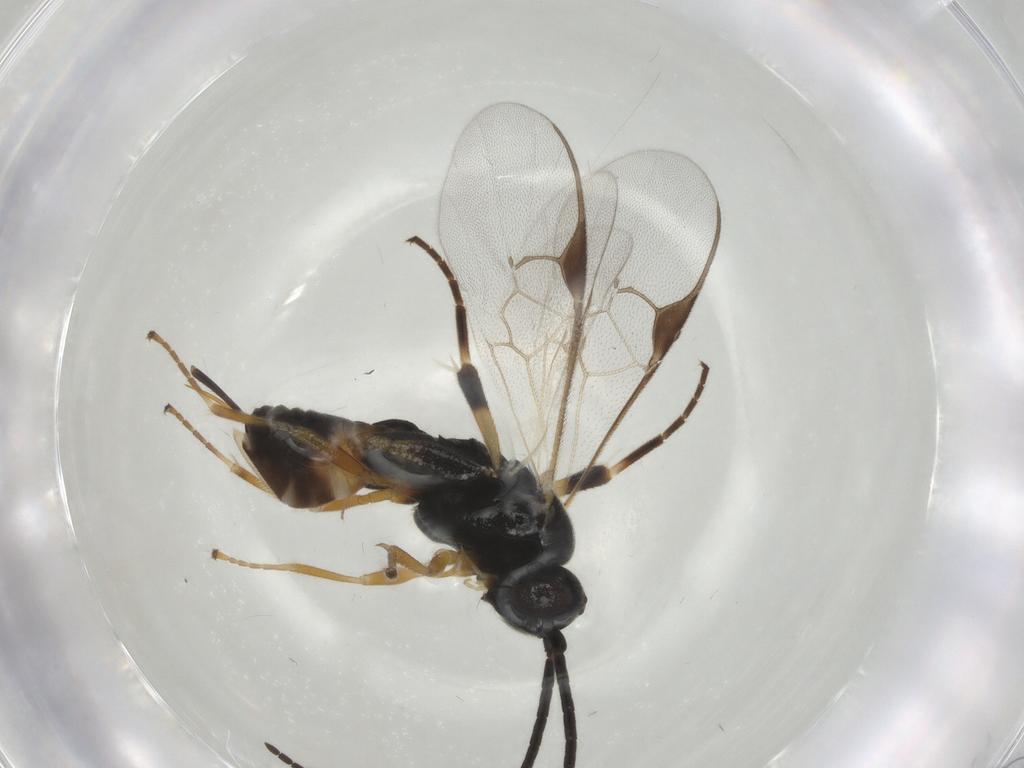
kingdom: Animalia
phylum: Arthropoda
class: Insecta
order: Hymenoptera
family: Braconidae
